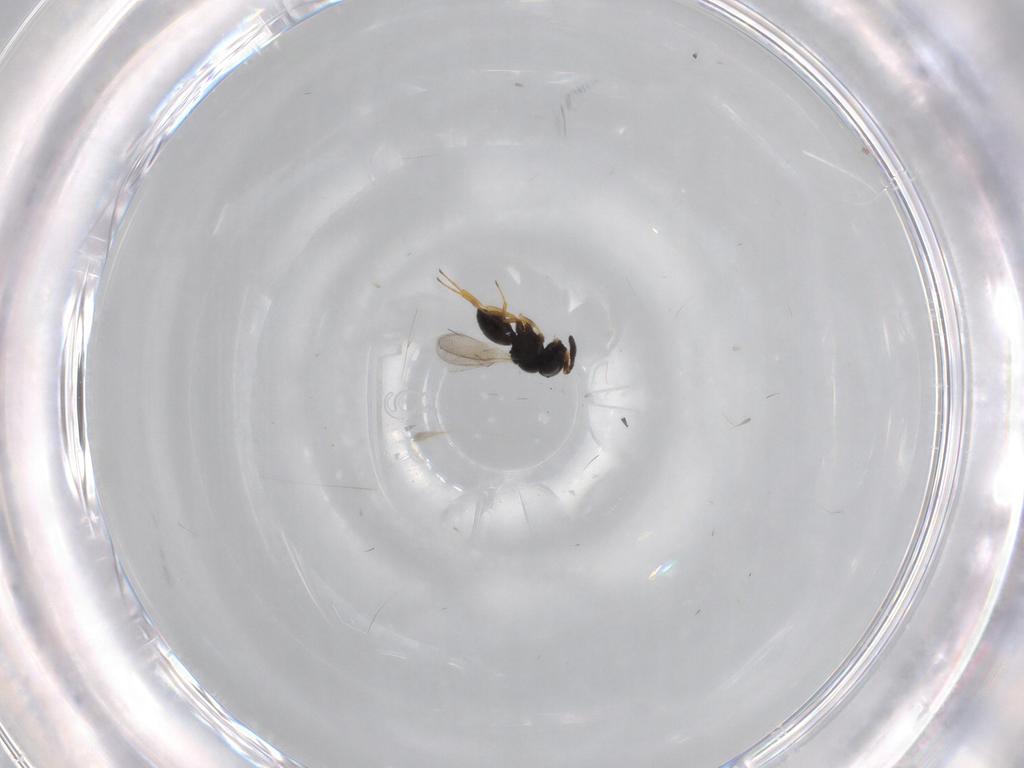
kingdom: Animalia
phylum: Arthropoda
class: Insecta
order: Hymenoptera
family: Scelionidae
